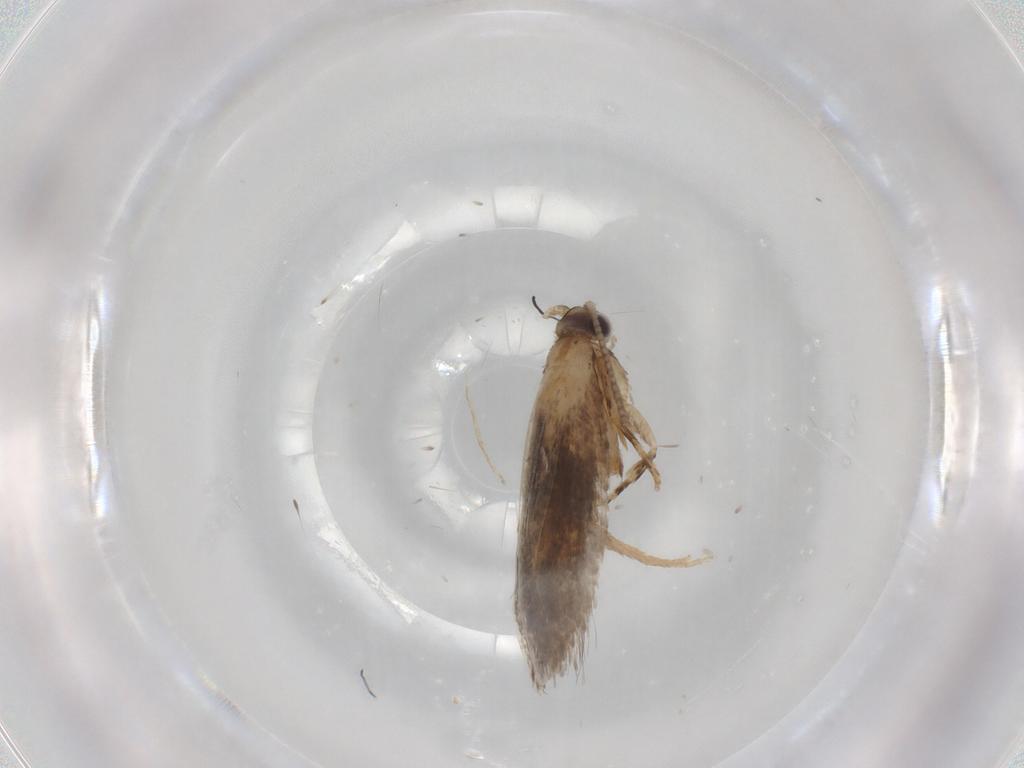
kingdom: Animalia
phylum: Arthropoda
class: Insecta
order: Lepidoptera
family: Tineidae
